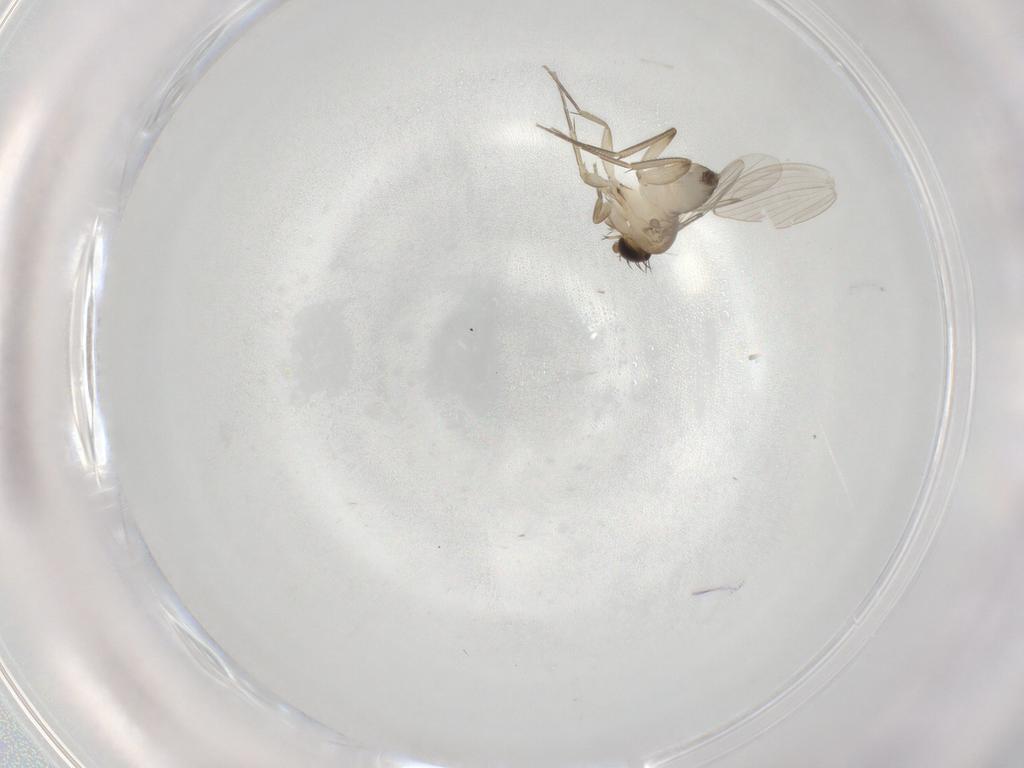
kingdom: Animalia
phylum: Arthropoda
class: Insecta
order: Diptera
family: Phoridae
